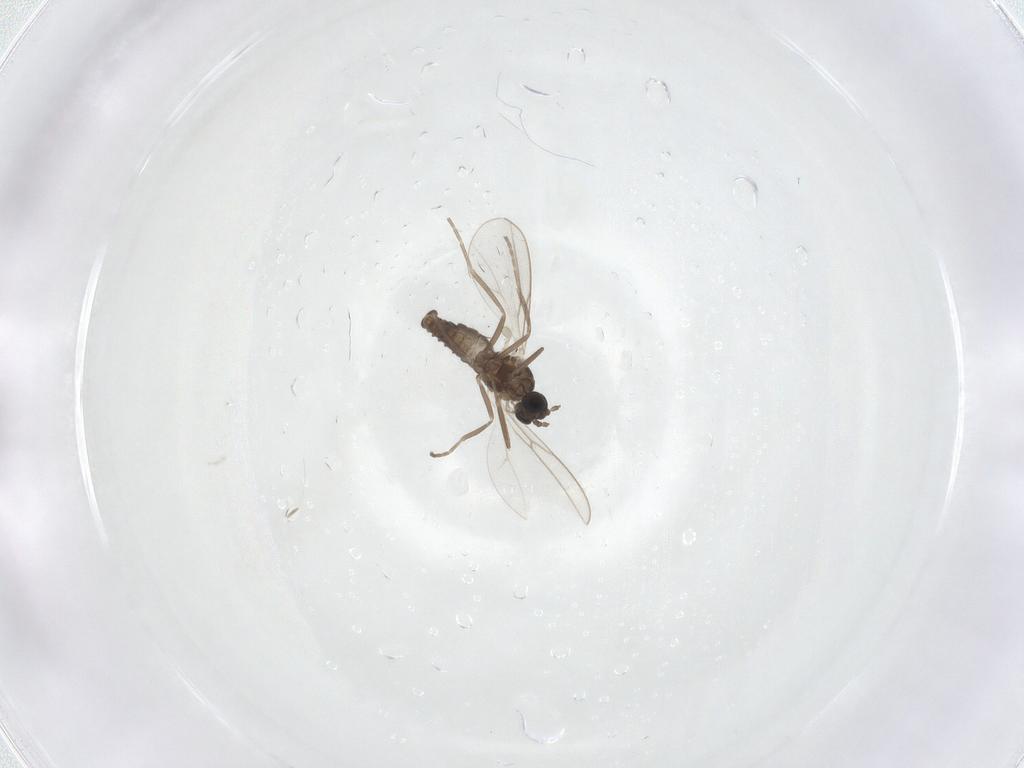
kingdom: Animalia
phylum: Arthropoda
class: Insecta
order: Diptera
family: Cecidomyiidae
